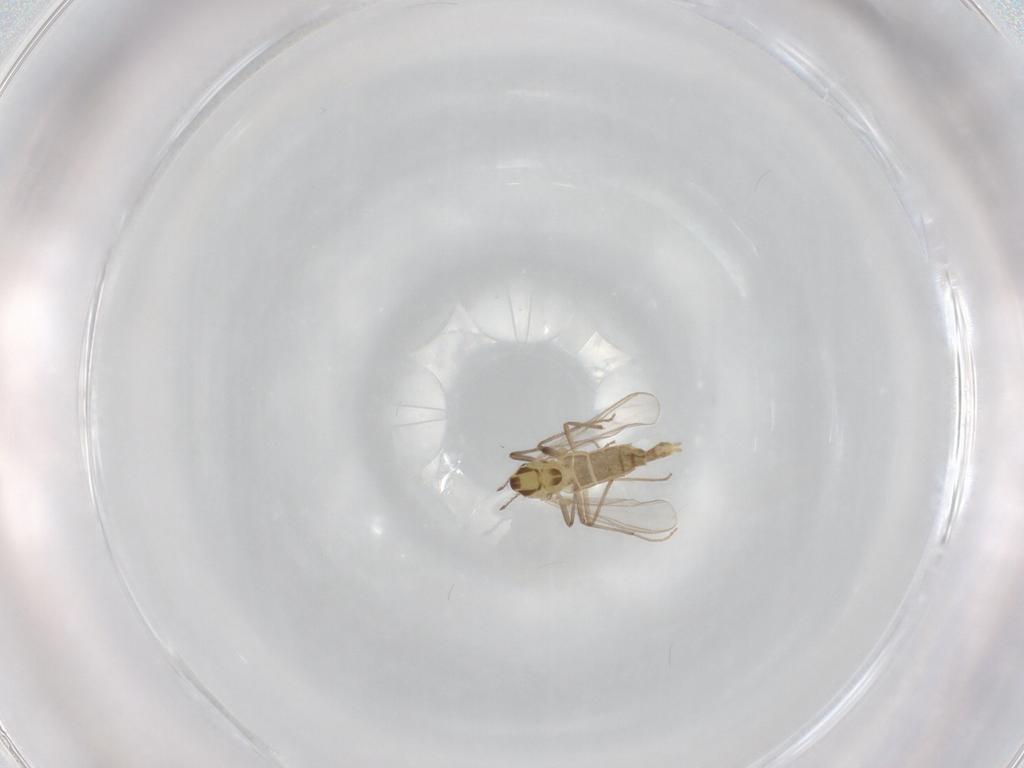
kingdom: Animalia
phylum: Arthropoda
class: Insecta
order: Diptera
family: Chironomidae
